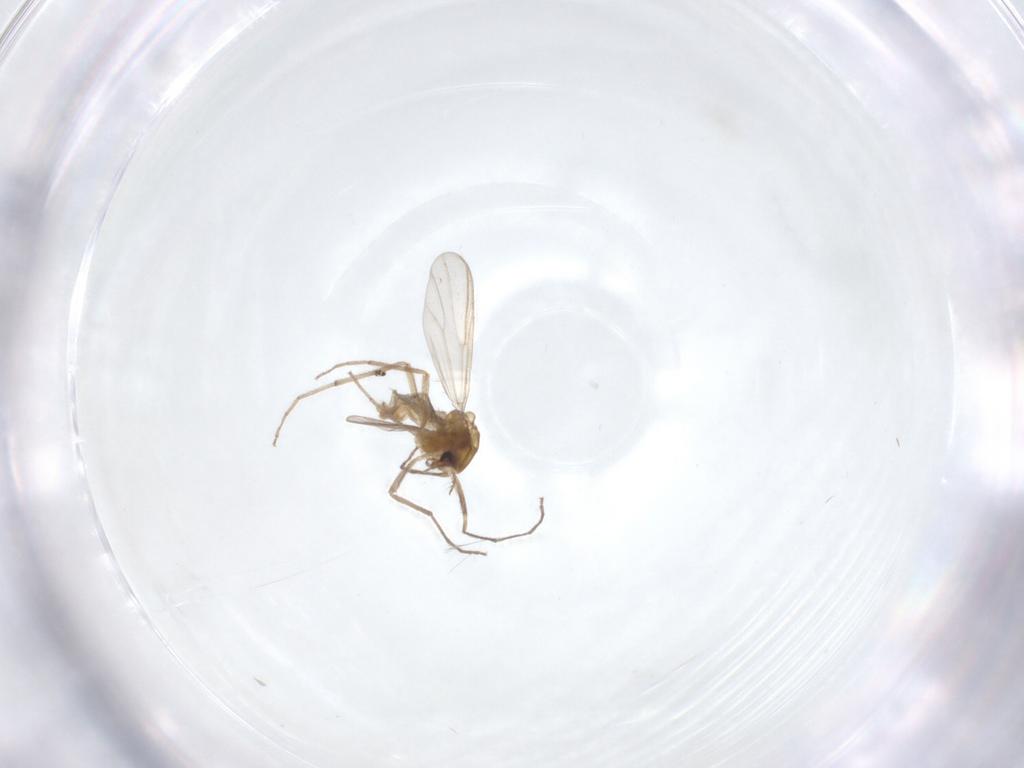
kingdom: Animalia
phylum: Arthropoda
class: Insecta
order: Diptera
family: Chironomidae
